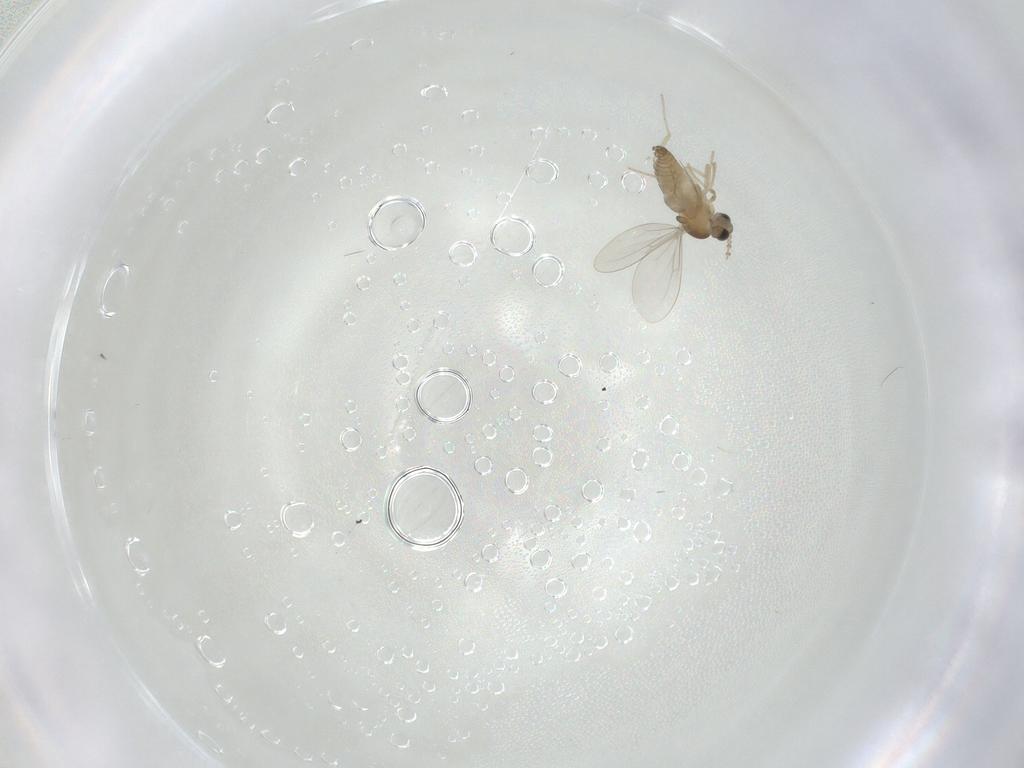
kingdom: Animalia
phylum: Arthropoda
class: Insecta
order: Diptera
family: Cecidomyiidae
